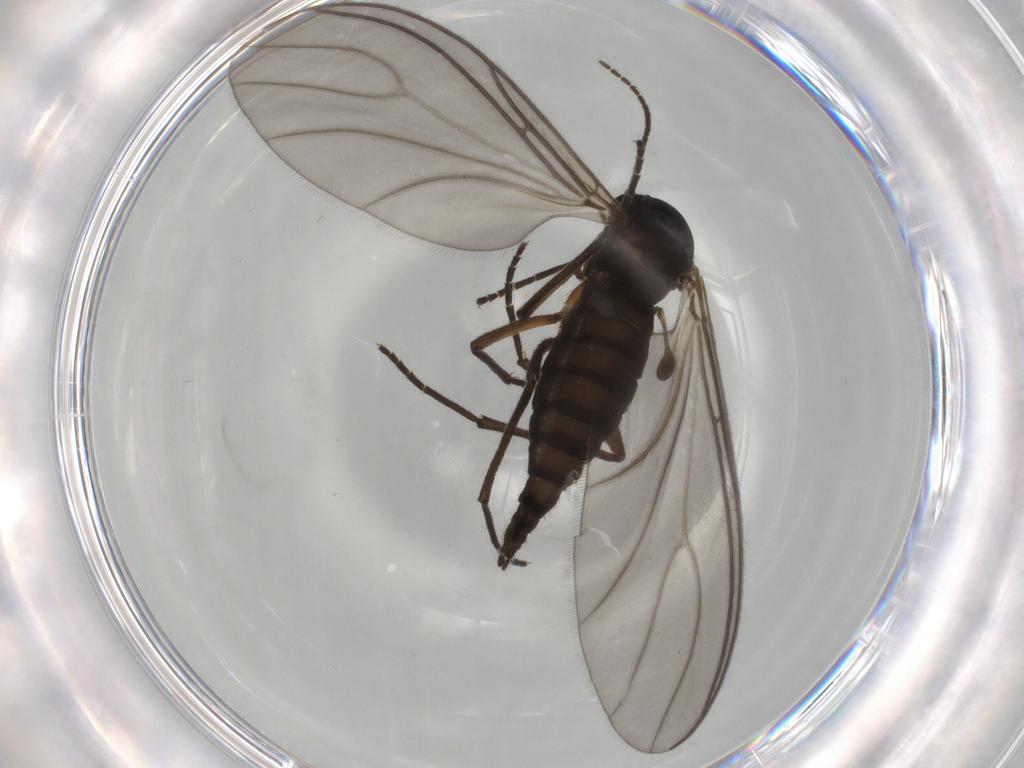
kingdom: Animalia
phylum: Arthropoda
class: Insecta
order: Diptera
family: Sciaridae
